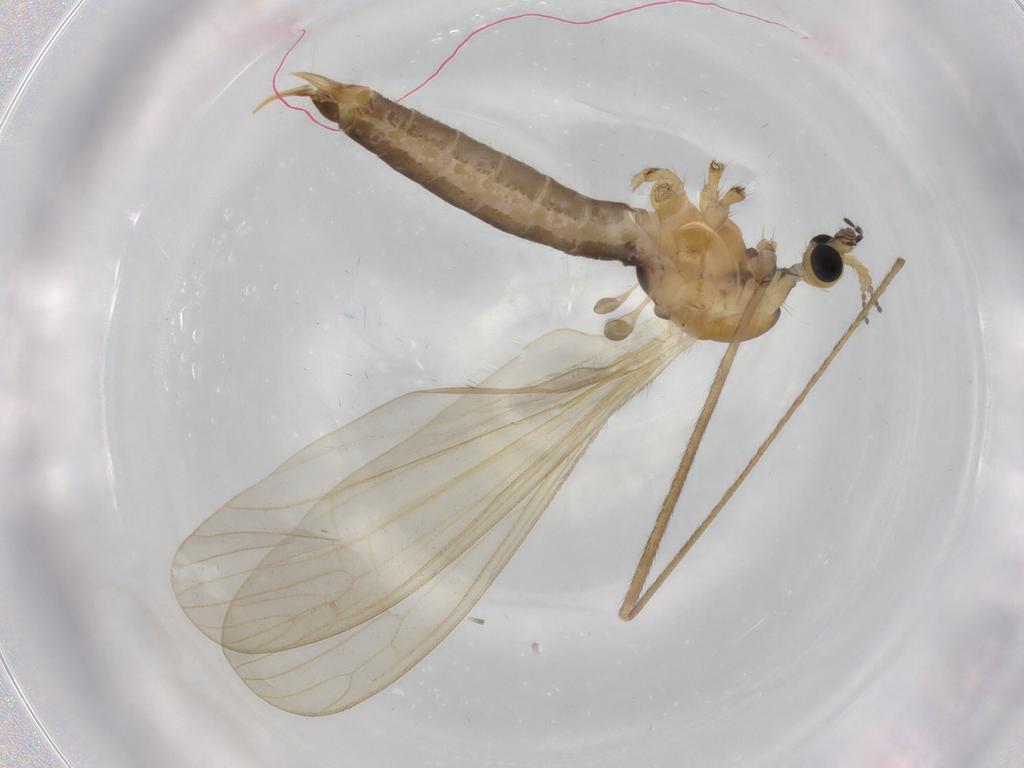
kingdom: Animalia
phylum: Arthropoda
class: Insecta
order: Diptera
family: Limoniidae
